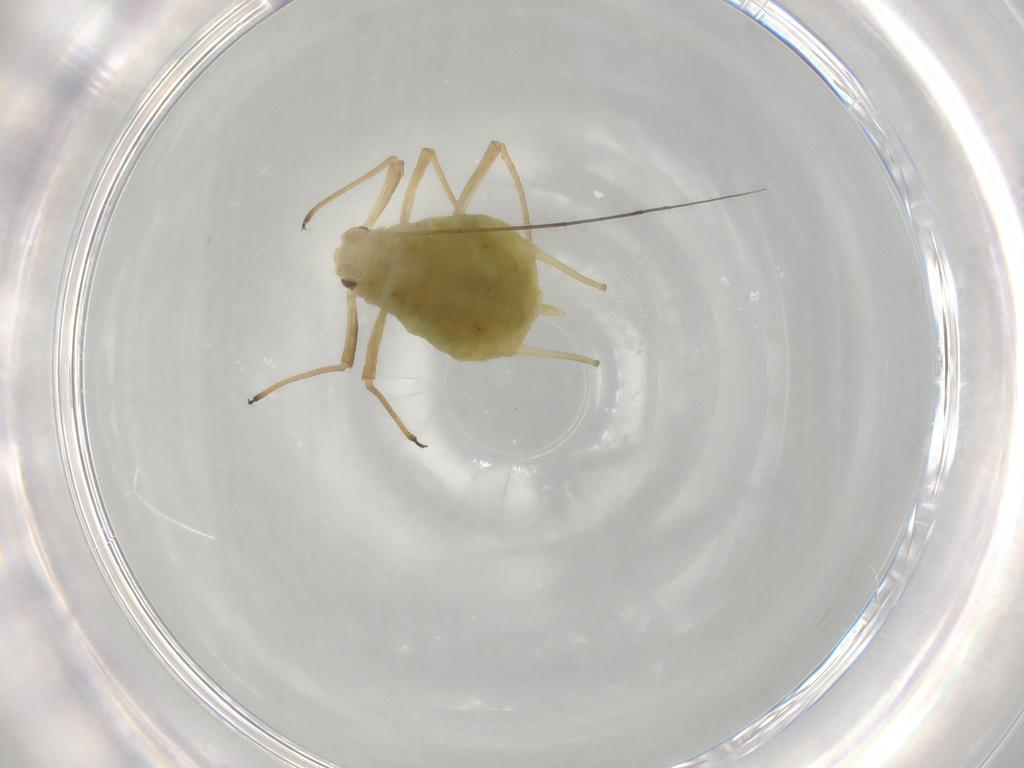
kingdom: Animalia
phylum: Arthropoda
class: Insecta
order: Hemiptera
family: Aphididae
